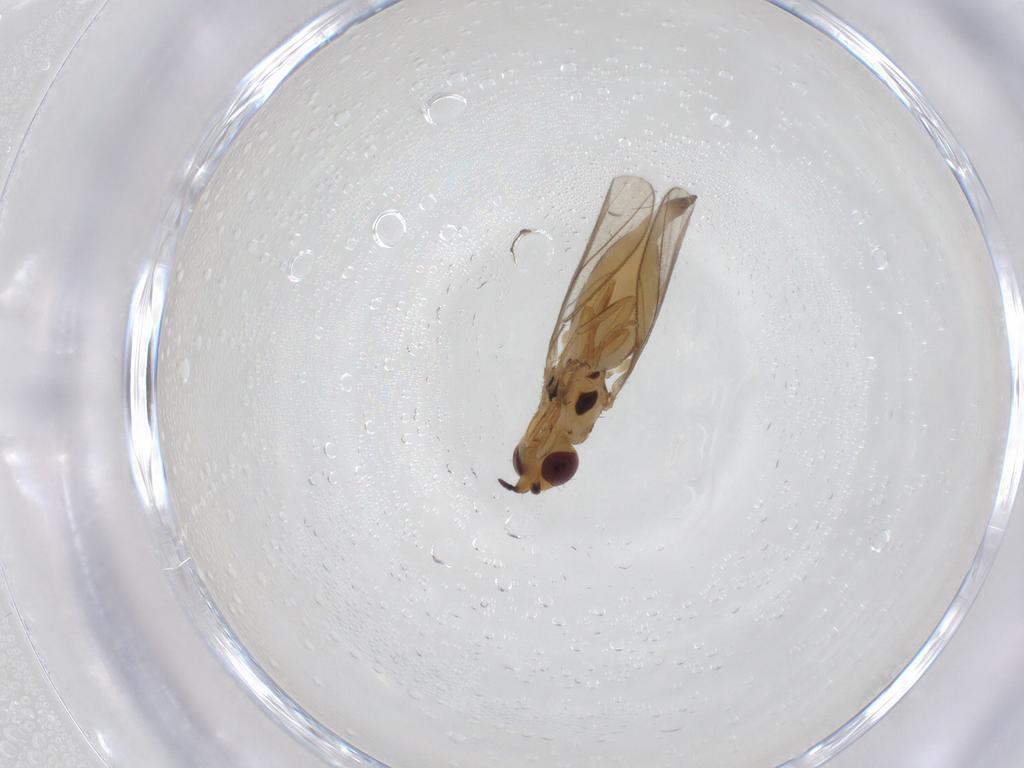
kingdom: Animalia
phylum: Arthropoda
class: Insecta
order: Diptera
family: Chloropidae
